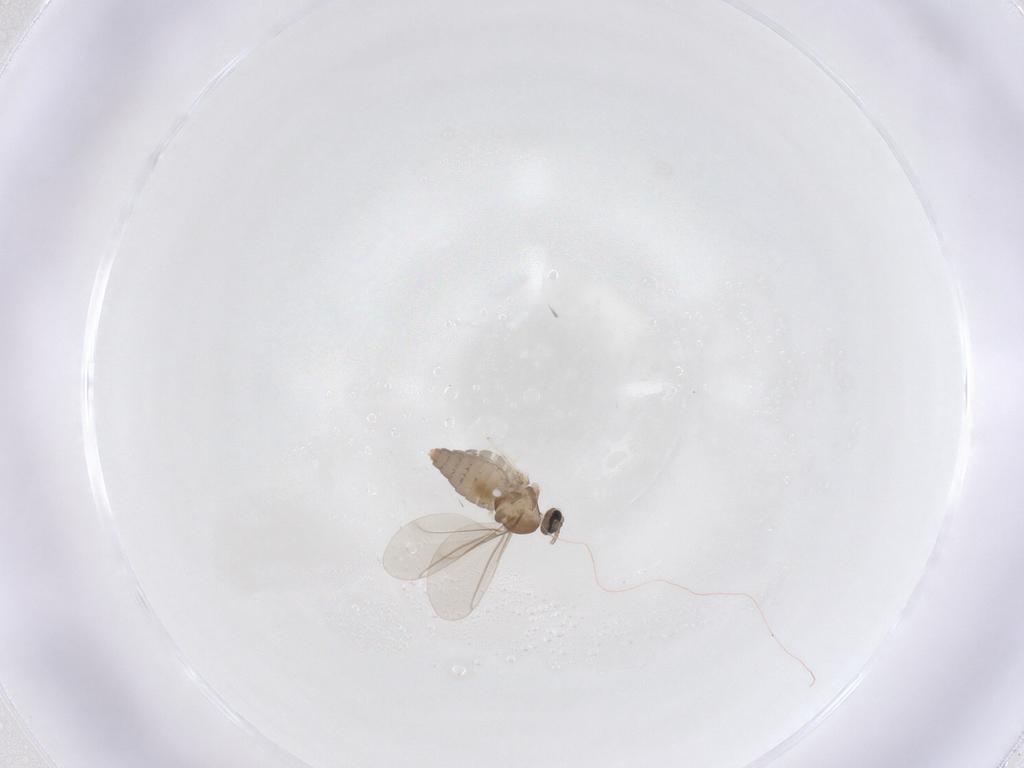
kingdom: Animalia
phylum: Arthropoda
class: Insecta
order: Diptera
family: Cecidomyiidae
